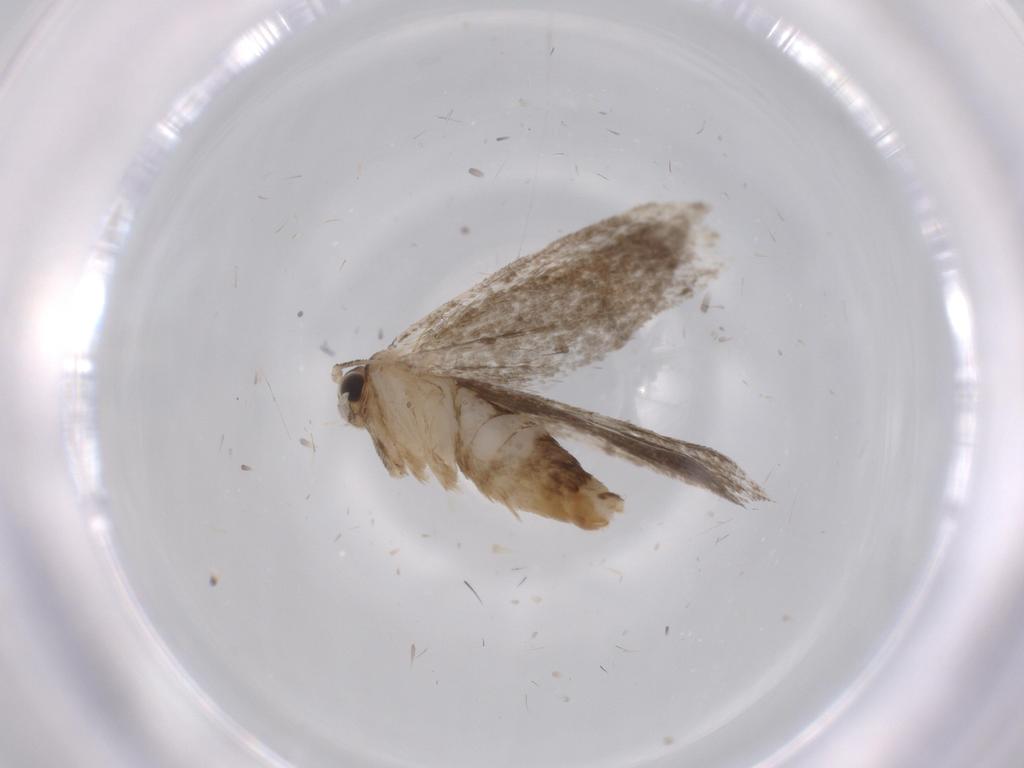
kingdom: Animalia
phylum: Arthropoda
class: Insecta
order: Lepidoptera
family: Tineidae
